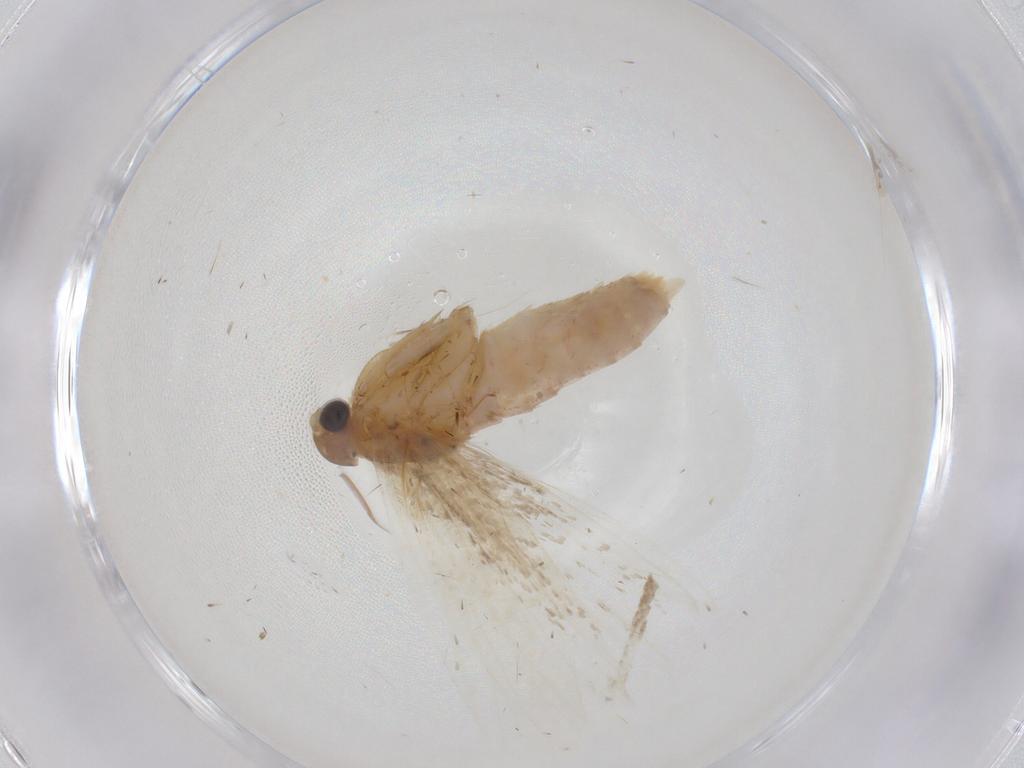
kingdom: Animalia
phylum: Arthropoda
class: Insecta
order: Lepidoptera
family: Gelechiidae
